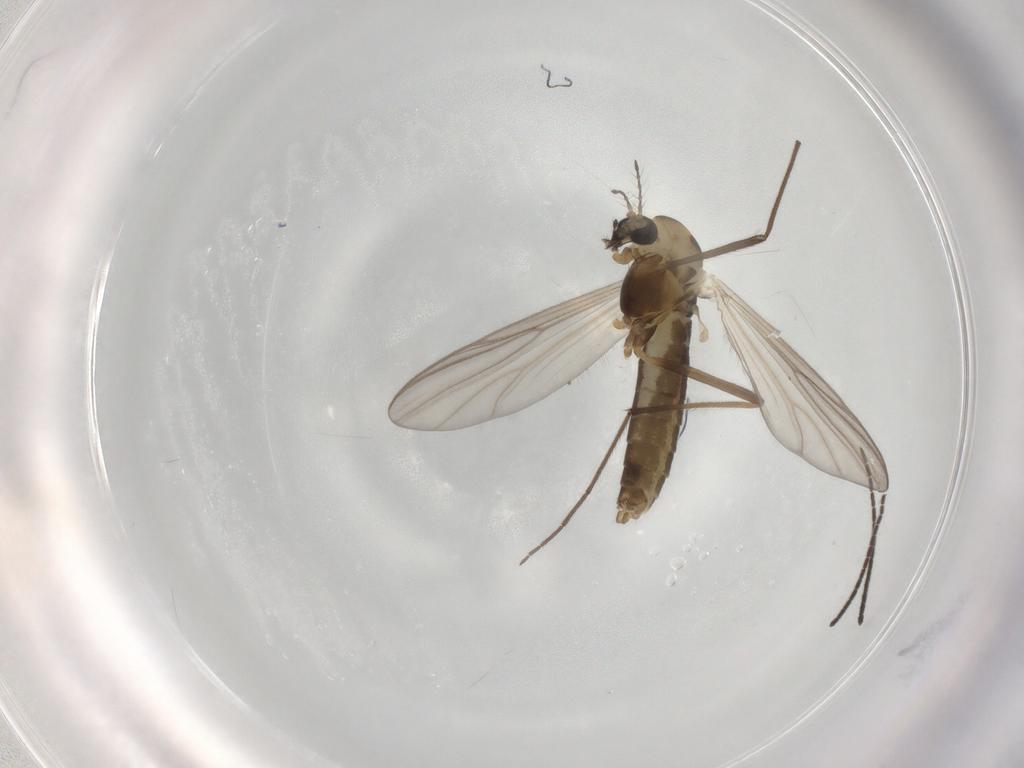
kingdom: Animalia
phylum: Arthropoda
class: Insecta
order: Diptera
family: Chironomidae
